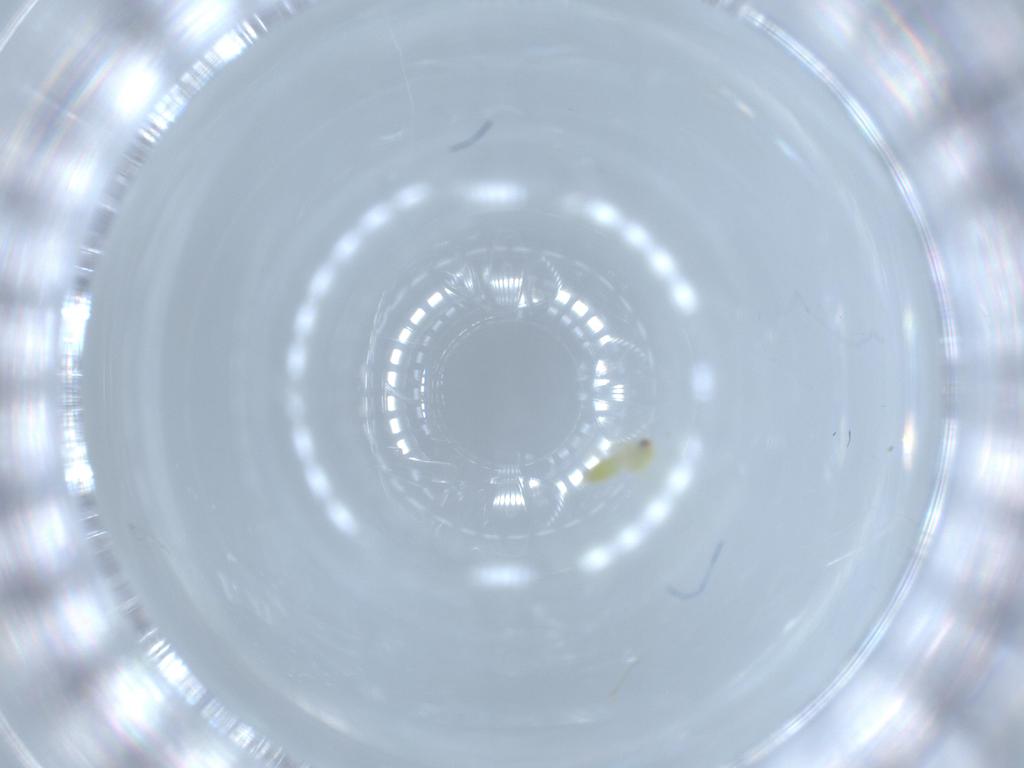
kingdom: Animalia
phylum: Arthropoda
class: Insecta
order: Hemiptera
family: Aleyrodidae
